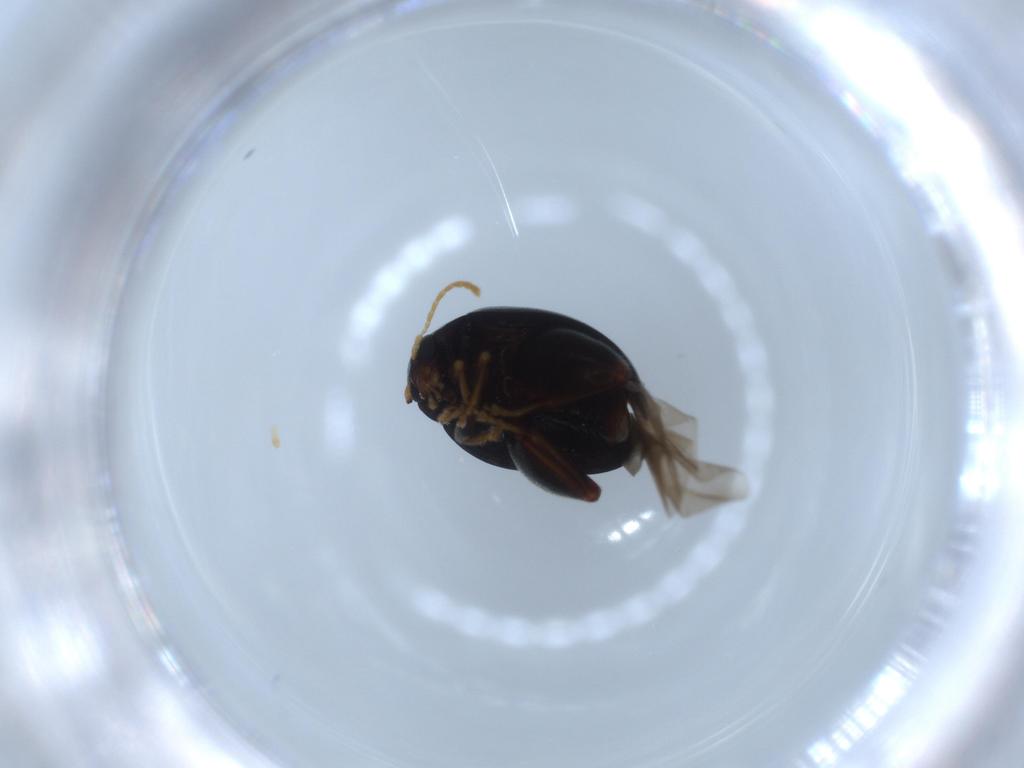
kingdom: Animalia
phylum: Arthropoda
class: Insecta
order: Coleoptera
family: Chrysomelidae
